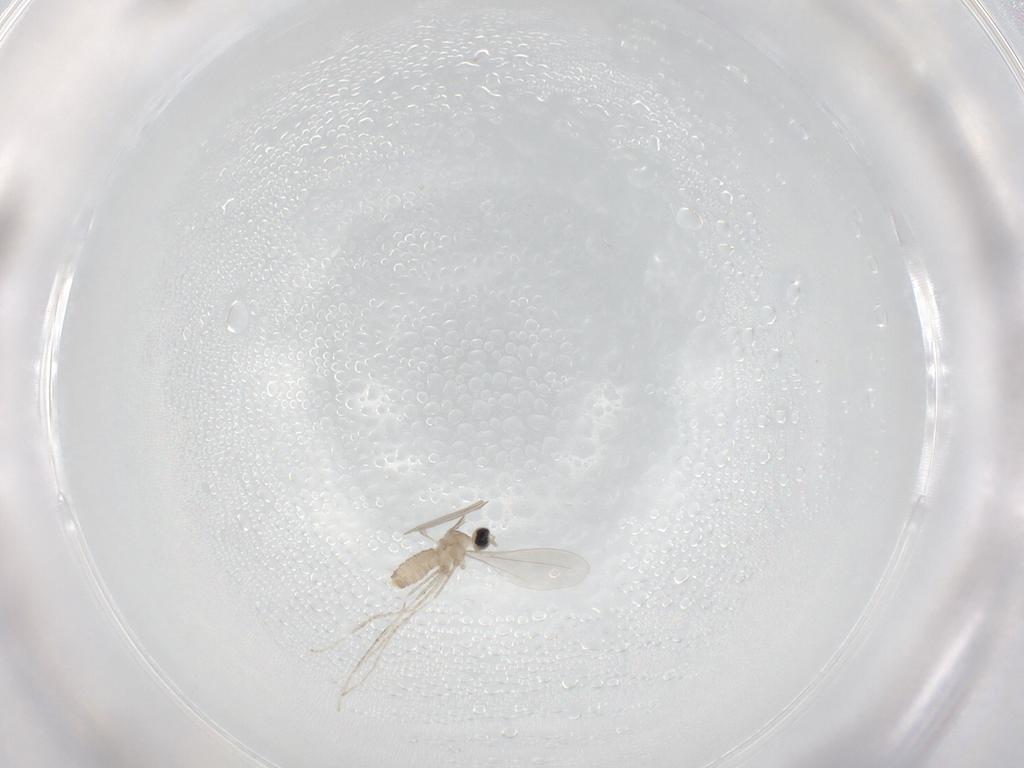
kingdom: Animalia
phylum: Arthropoda
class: Insecta
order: Diptera
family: Cecidomyiidae
